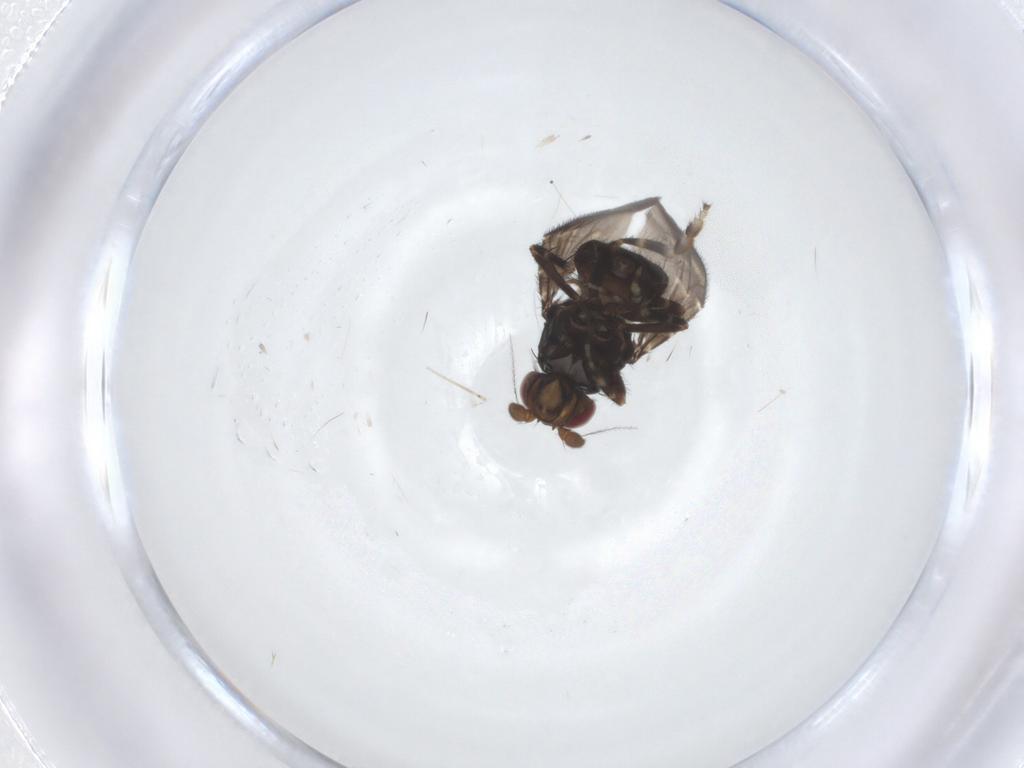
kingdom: Animalia
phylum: Arthropoda
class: Insecta
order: Diptera
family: Sphaeroceridae
